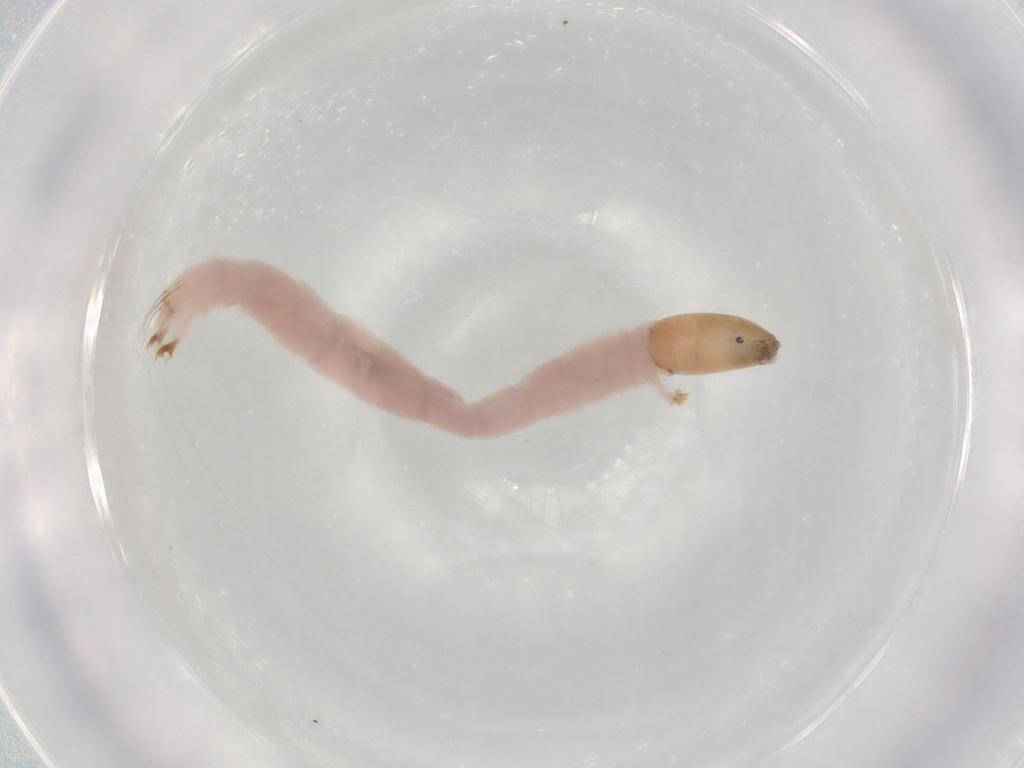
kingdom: Animalia
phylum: Arthropoda
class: Insecta
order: Diptera
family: Chironomidae
